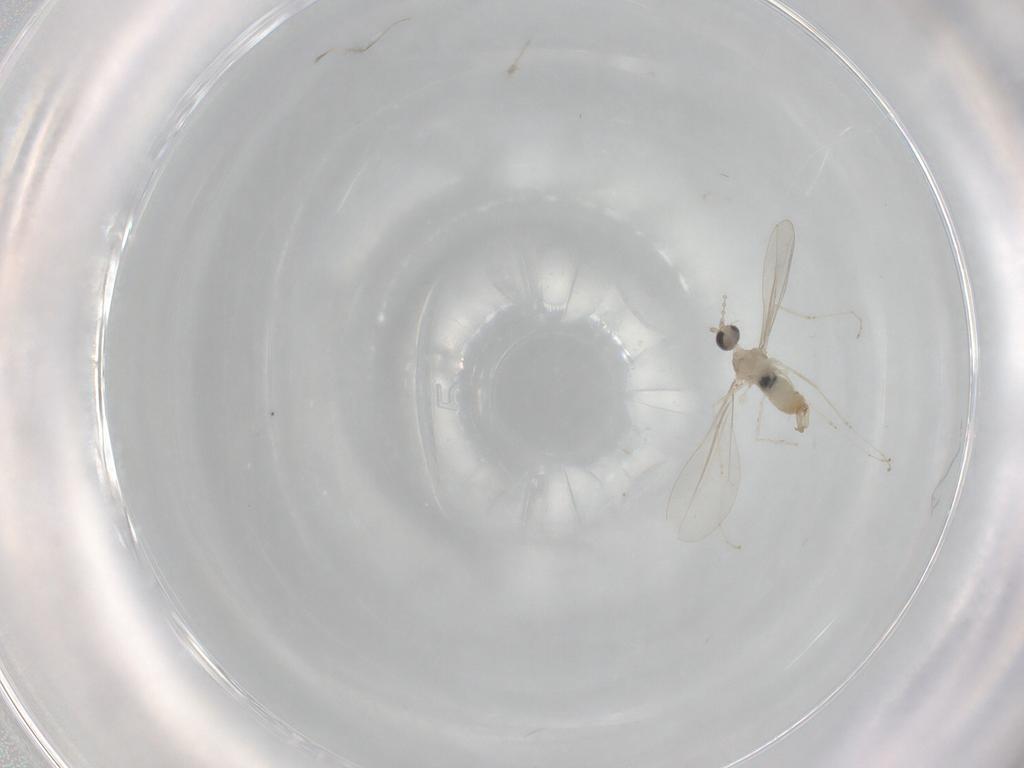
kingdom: Animalia
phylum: Arthropoda
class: Insecta
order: Diptera
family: Cecidomyiidae
